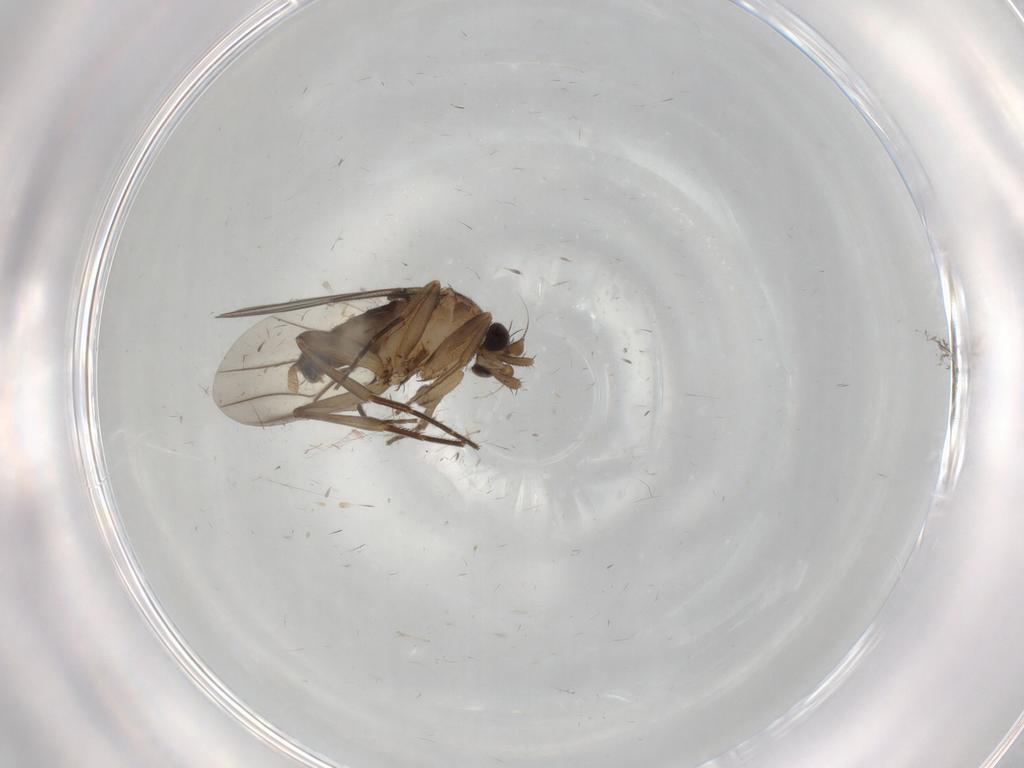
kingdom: Animalia
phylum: Arthropoda
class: Insecta
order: Diptera
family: Phoridae
